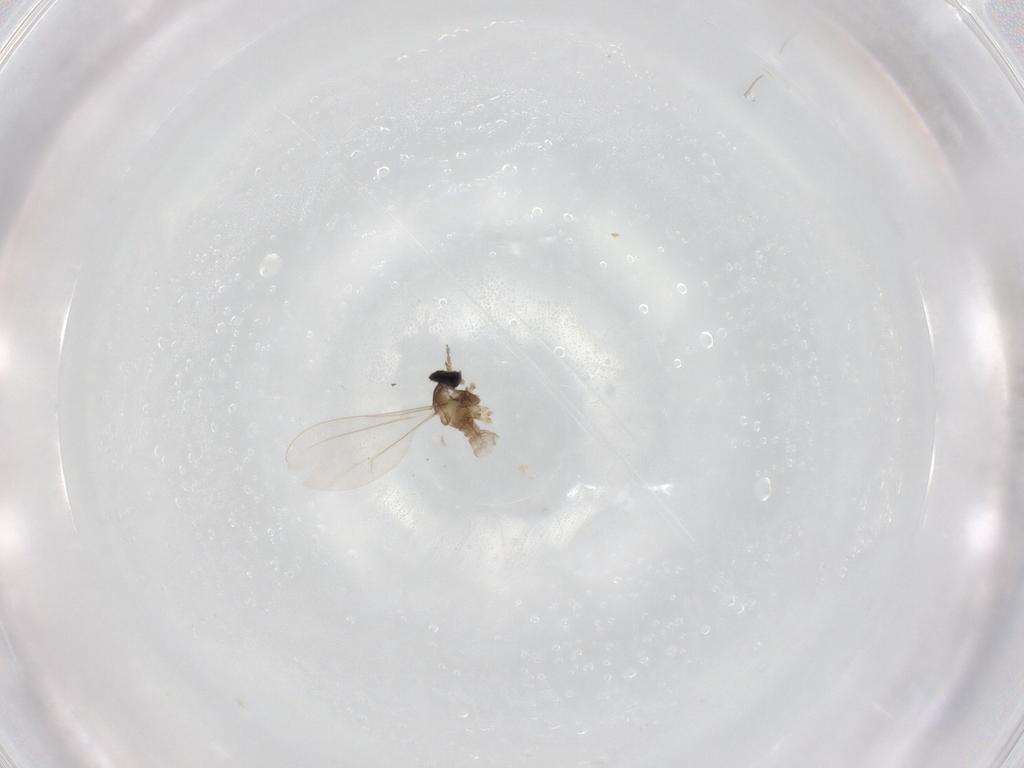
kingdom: Animalia
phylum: Arthropoda
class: Insecta
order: Diptera
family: Cecidomyiidae
